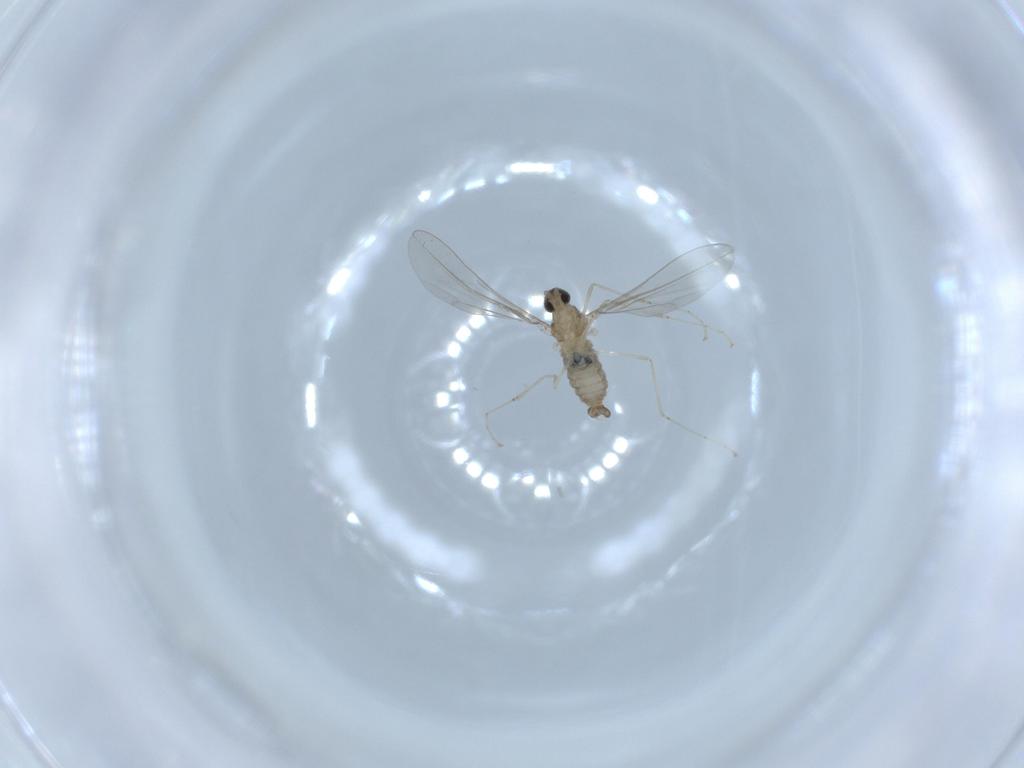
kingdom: Animalia
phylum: Arthropoda
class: Insecta
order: Diptera
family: Cecidomyiidae
